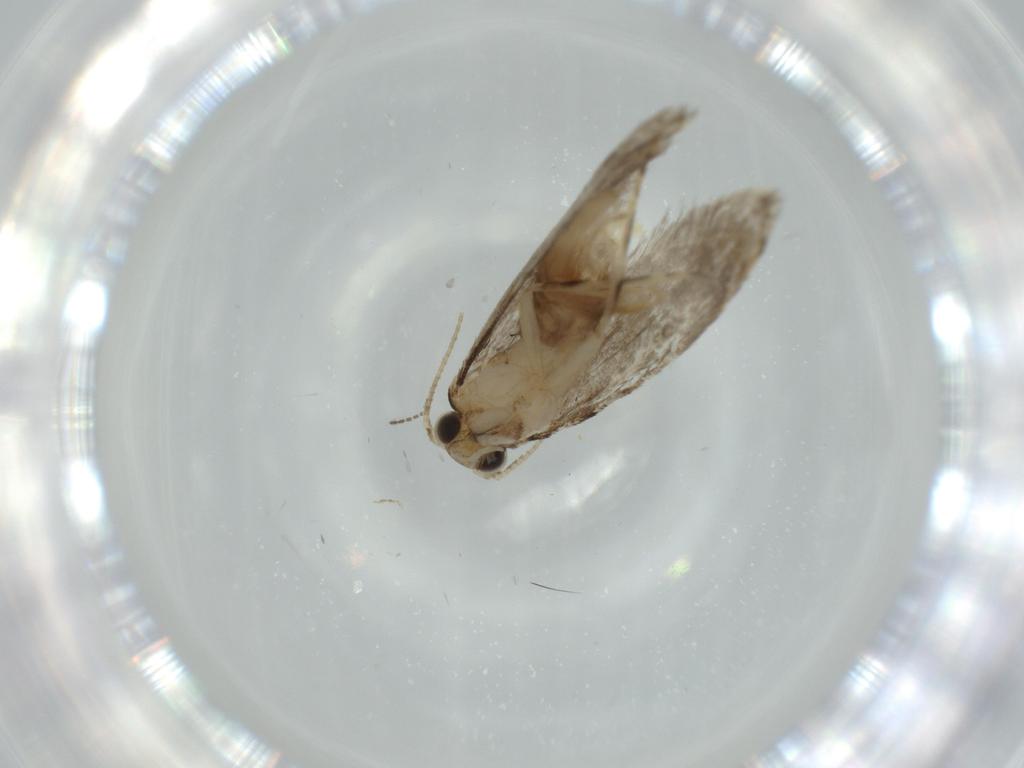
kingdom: Animalia
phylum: Arthropoda
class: Insecta
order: Lepidoptera
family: Tineidae
